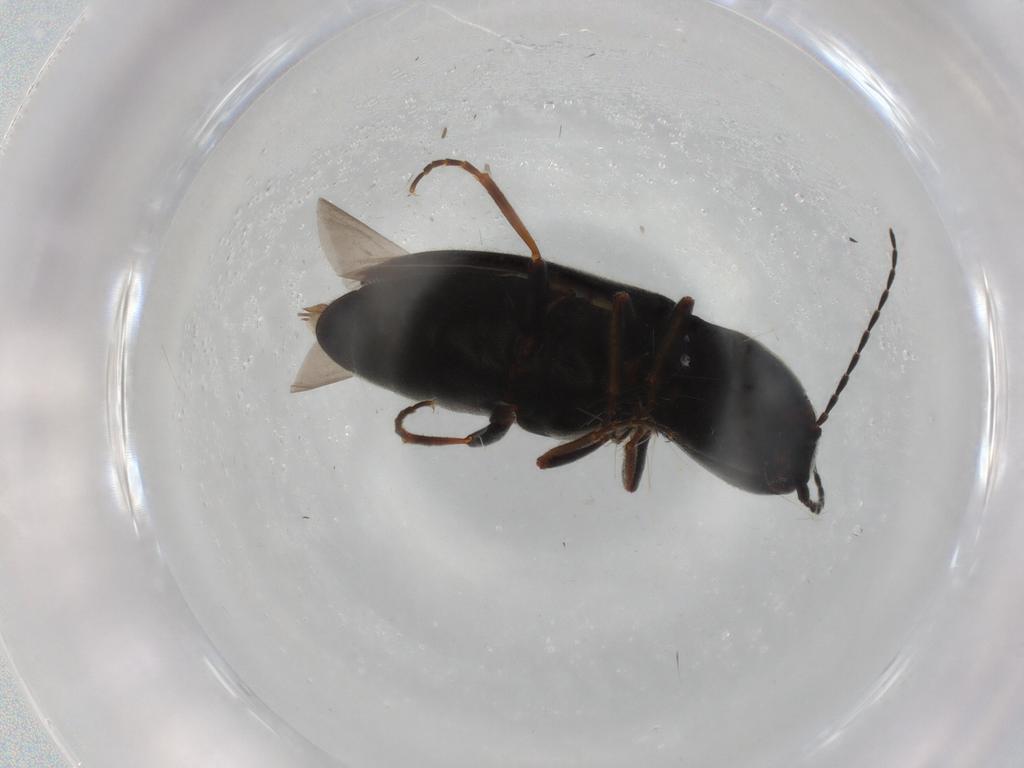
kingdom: Animalia
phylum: Arthropoda
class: Insecta
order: Coleoptera
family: Elateridae
